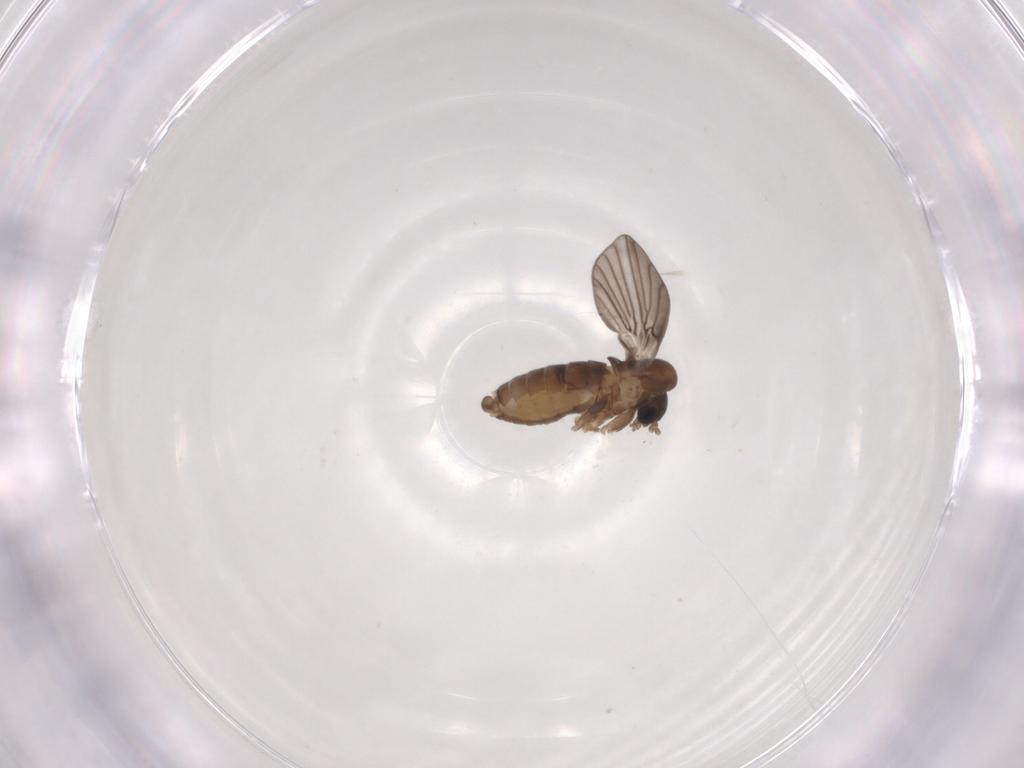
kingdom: Animalia
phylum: Arthropoda
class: Insecta
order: Diptera
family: Psychodidae
